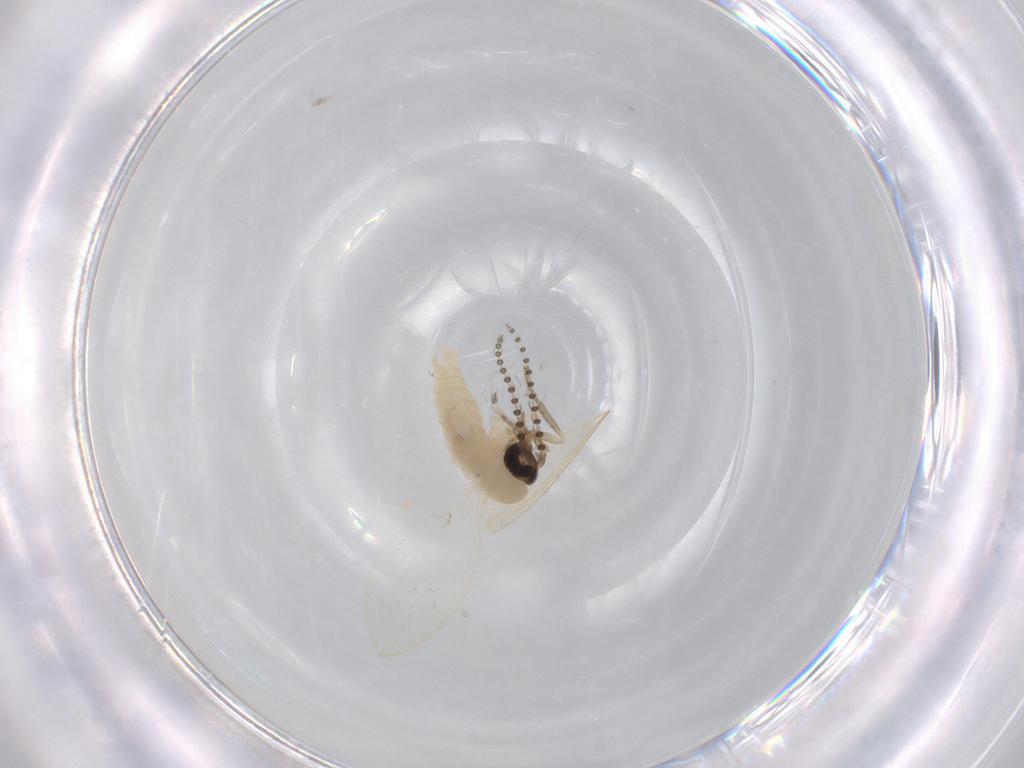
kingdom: Animalia
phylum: Arthropoda
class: Insecta
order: Diptera
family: Psychodidae
